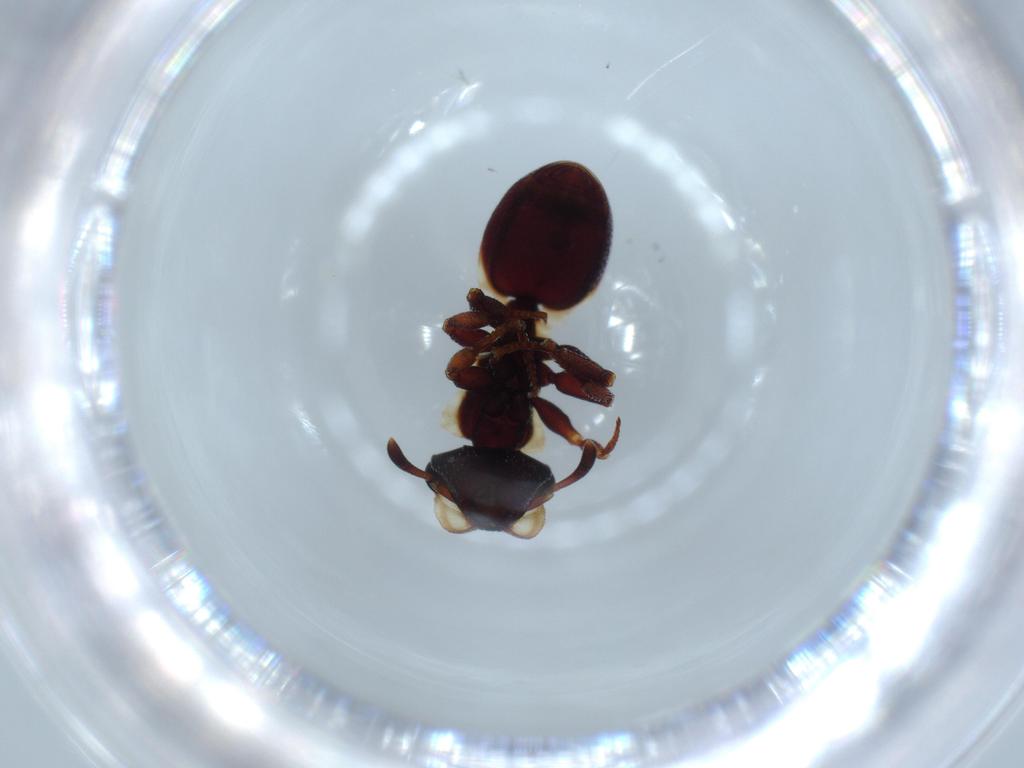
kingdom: Animalia
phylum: Arthropoda
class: Insecta
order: Hymenoptera
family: Formicidae
